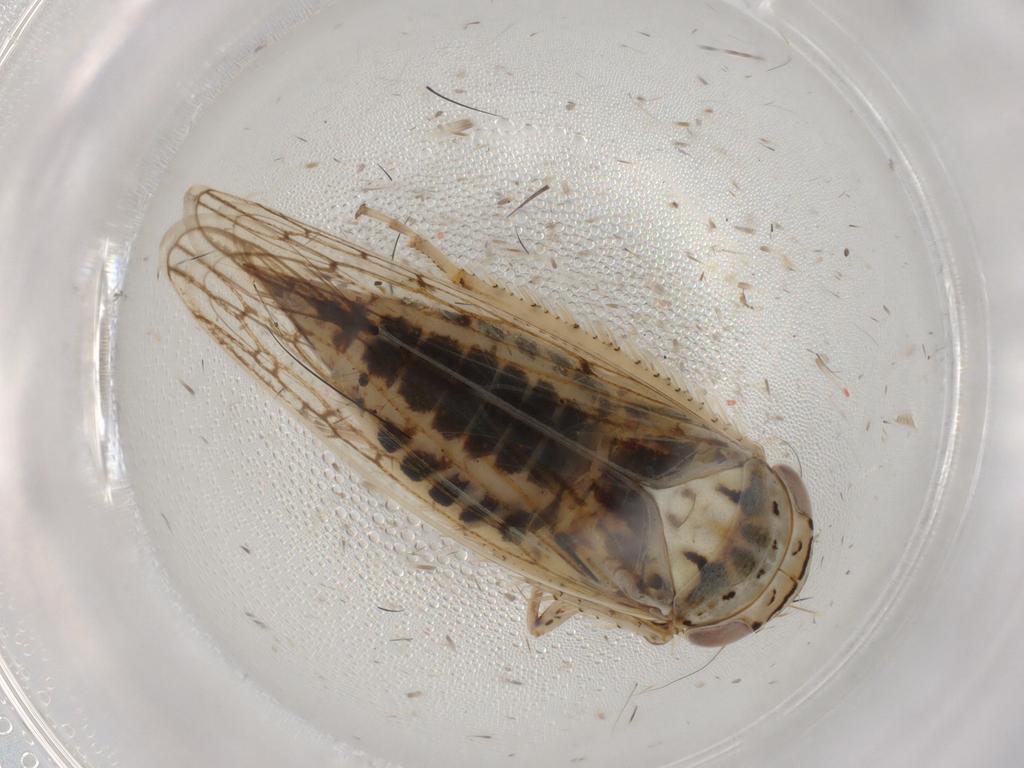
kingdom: Animalia
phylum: Arthropoda
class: Insecta
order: Hemiptera
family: Cicadellidae
